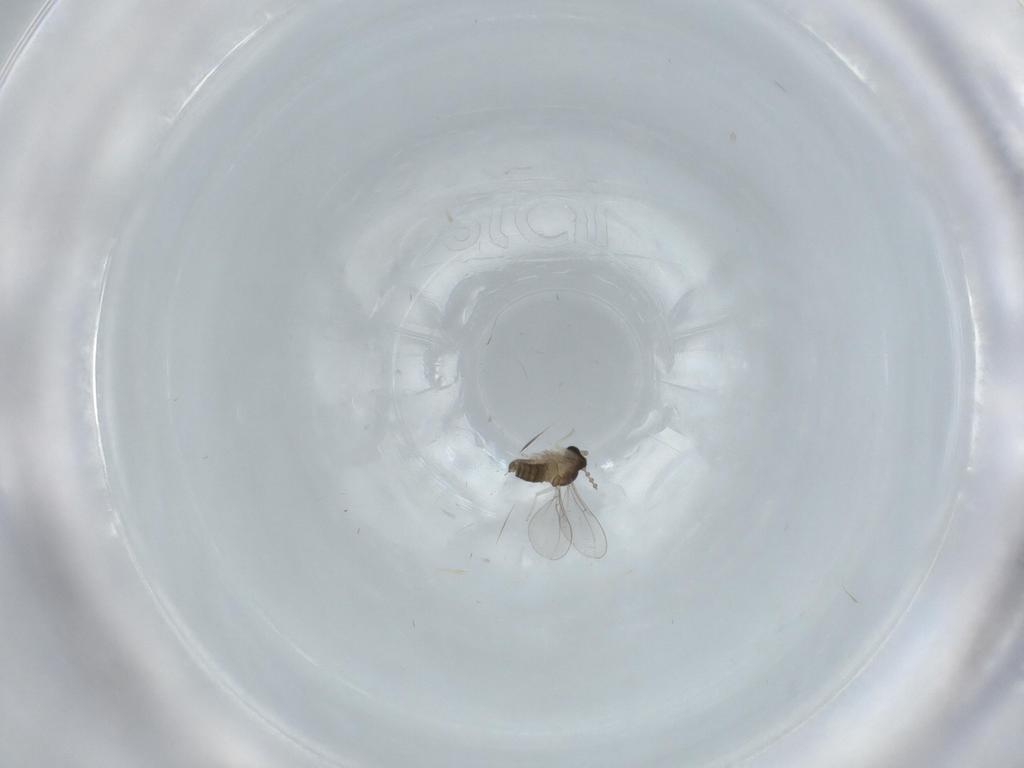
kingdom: Animalia
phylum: Arthropoda
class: Insecta
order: Diptera
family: Cecidomyiidae
